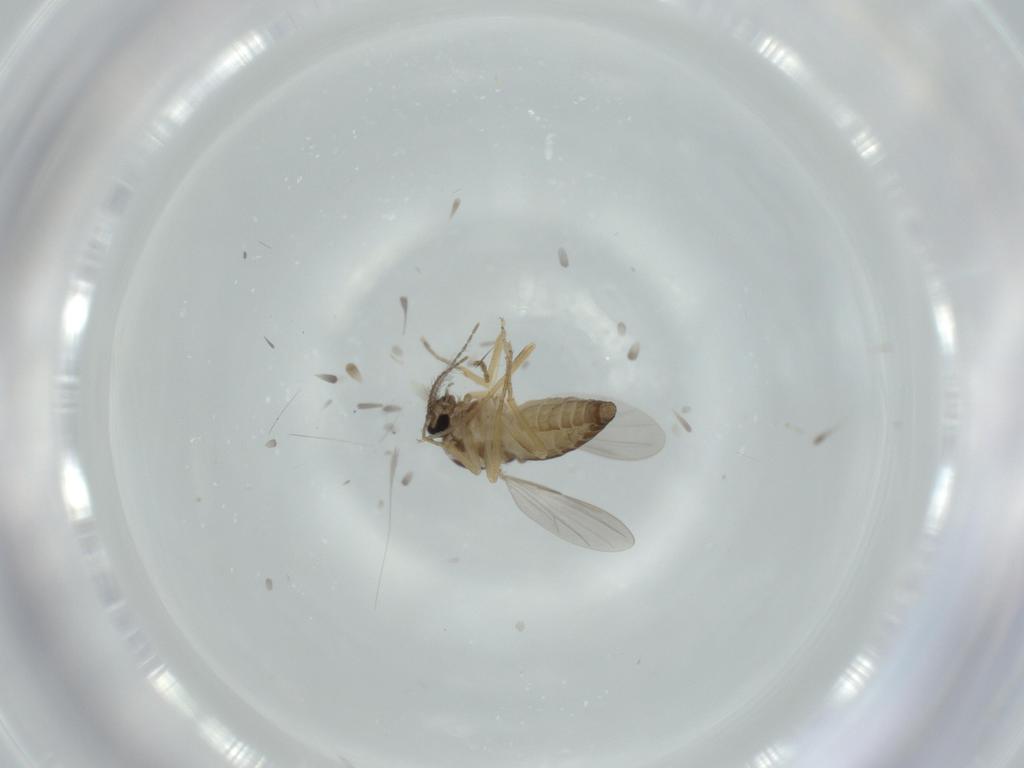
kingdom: Animalia
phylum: Arthropoda
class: Insecta
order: Diptera
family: Ceratopogonidae
